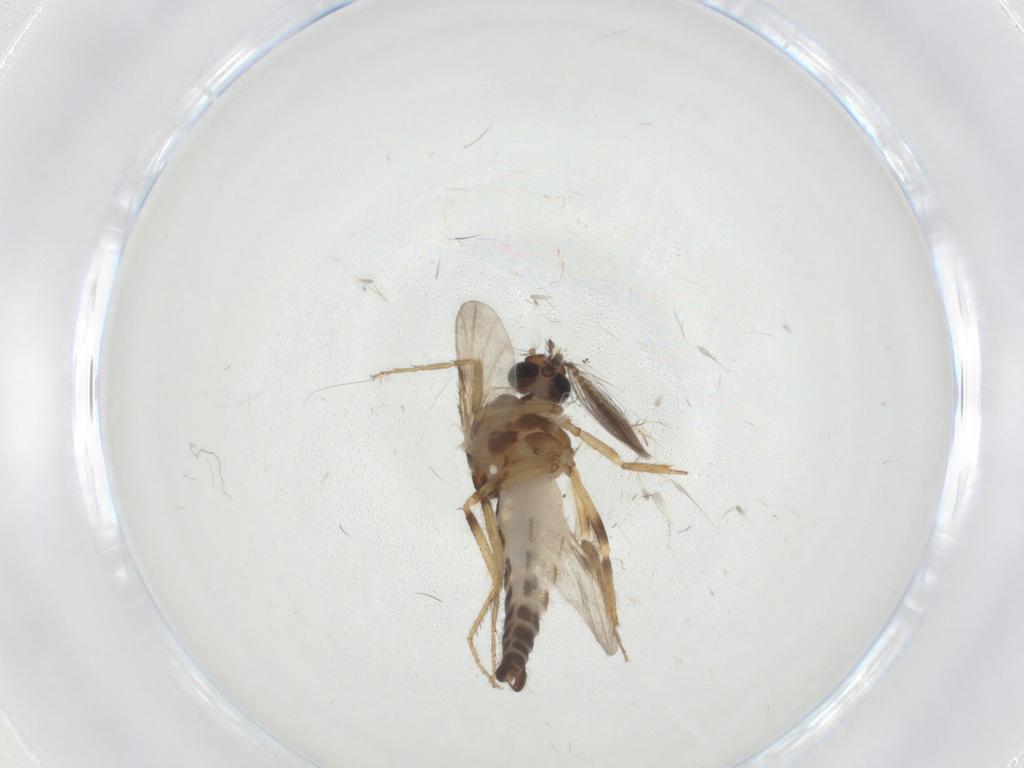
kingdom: Animalia
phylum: Arthropoda
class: Insecta
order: Diptera
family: Ceratopogonidae
